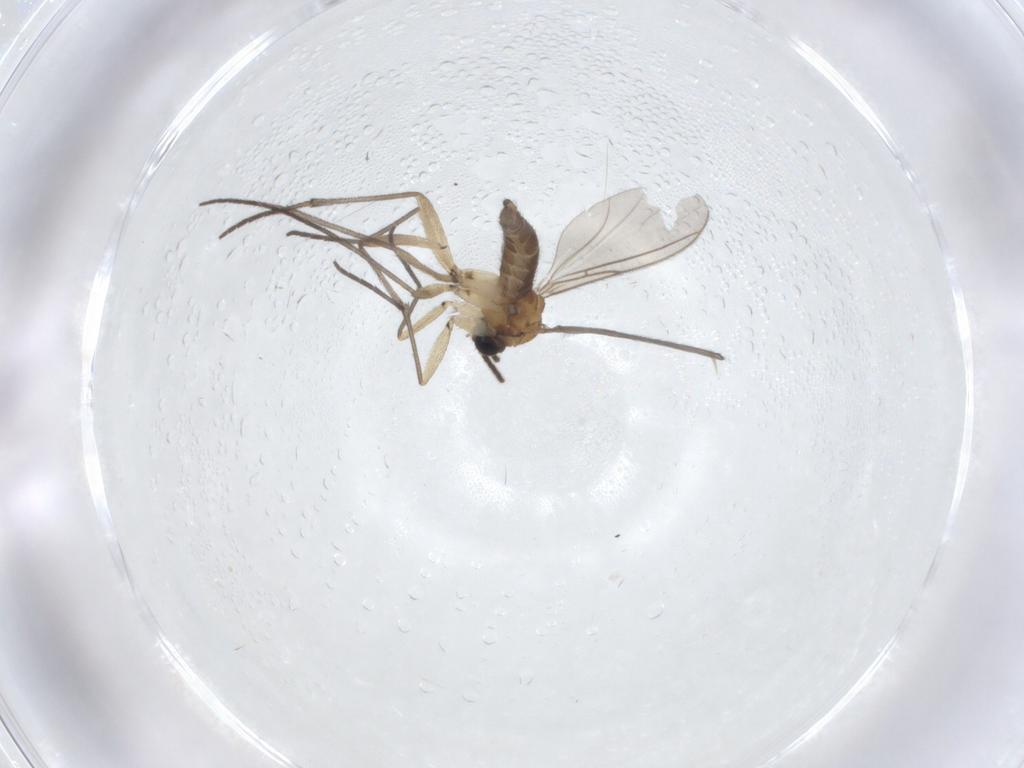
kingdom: Animalia
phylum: Arthropoda
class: Insecta
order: Diptera
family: Sciaridae
